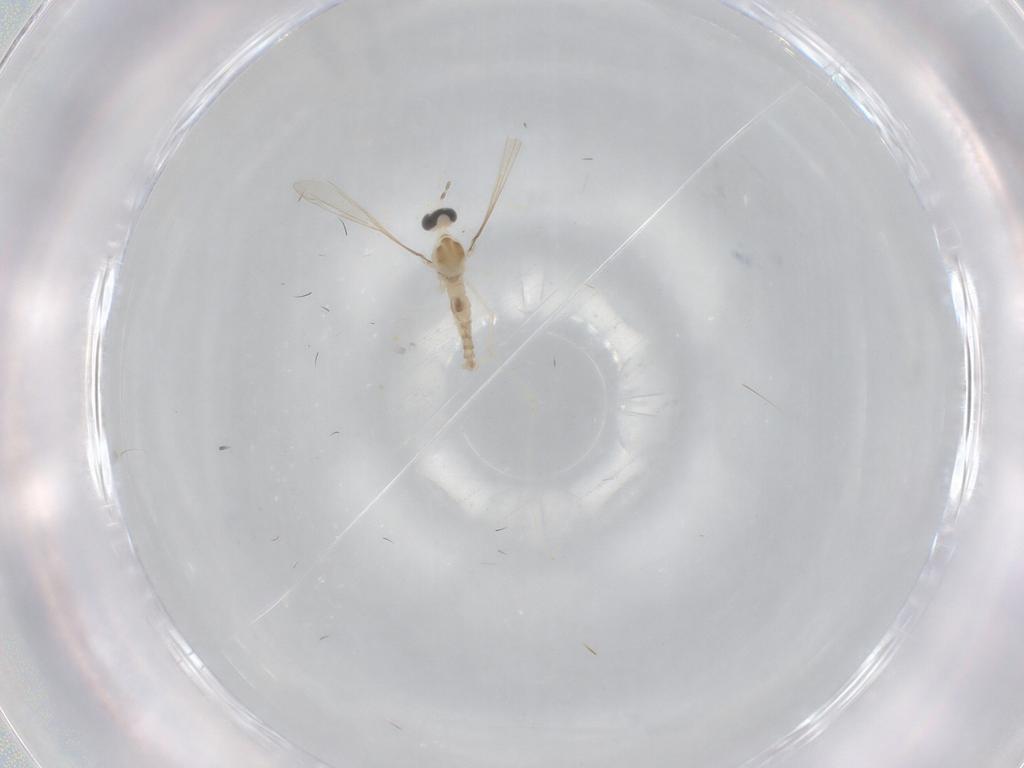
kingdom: Animalia
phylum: Arthropoda
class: Insecta
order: Diptera
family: Cecidomyiidae
